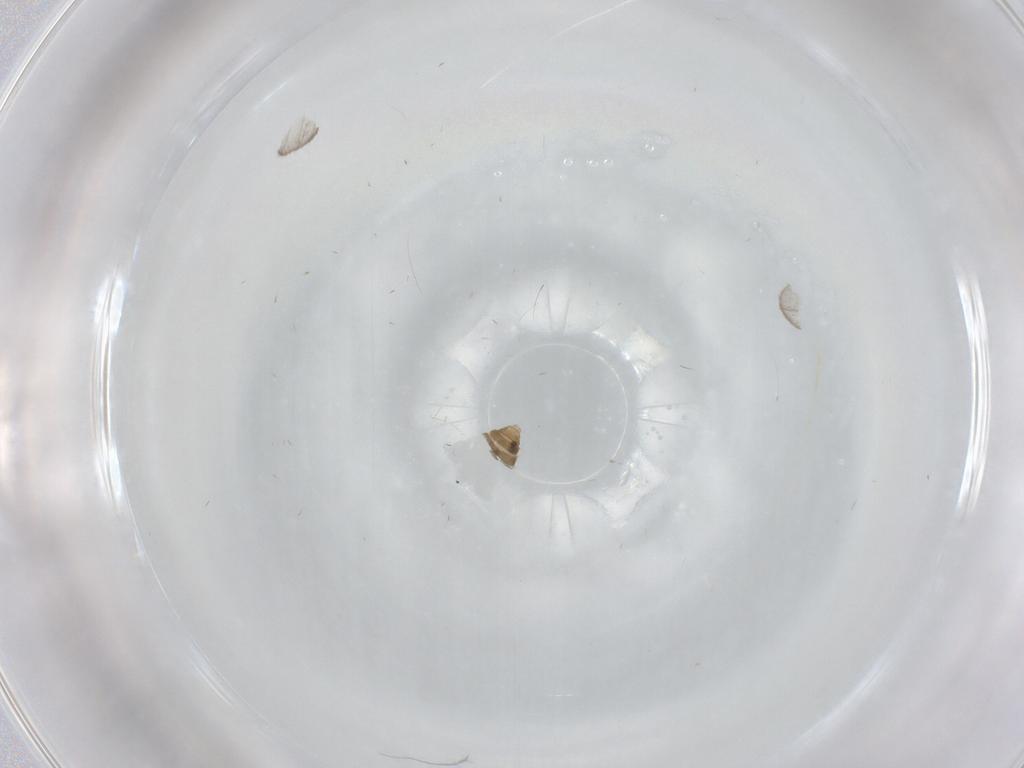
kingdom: Animalia
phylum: Arthropoda
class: Insecta
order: Diptera
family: Ceratopogonidae
